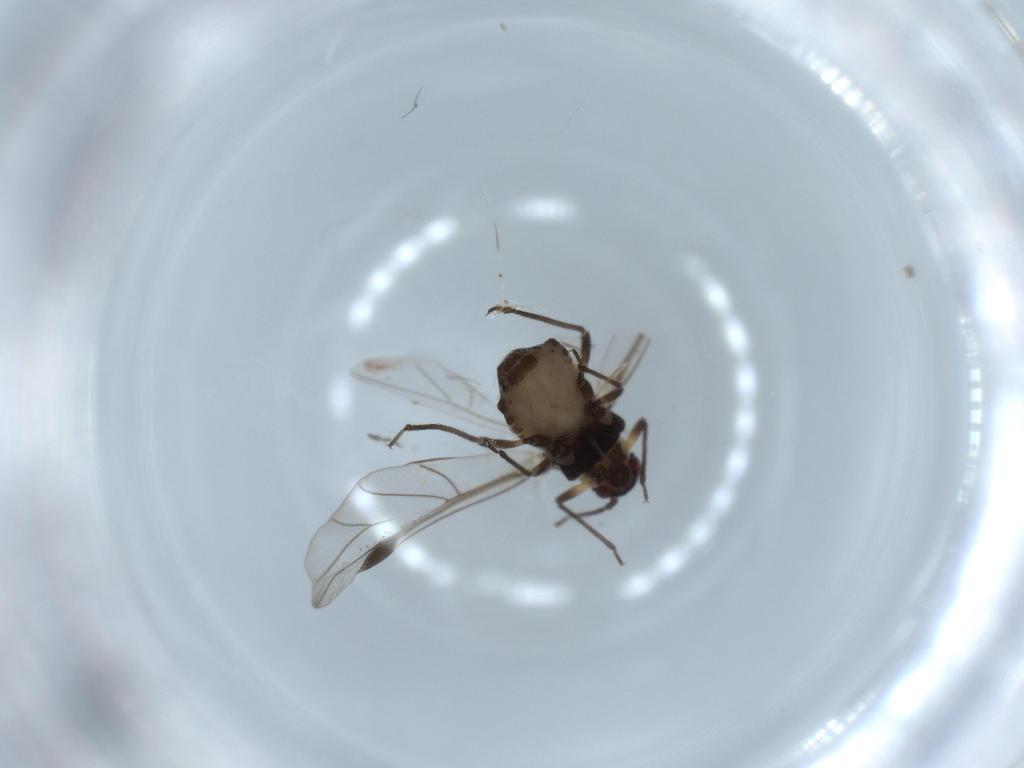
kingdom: Animalia
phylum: Arthropoda
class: Insecta
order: Hemiptera
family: Aphididae
